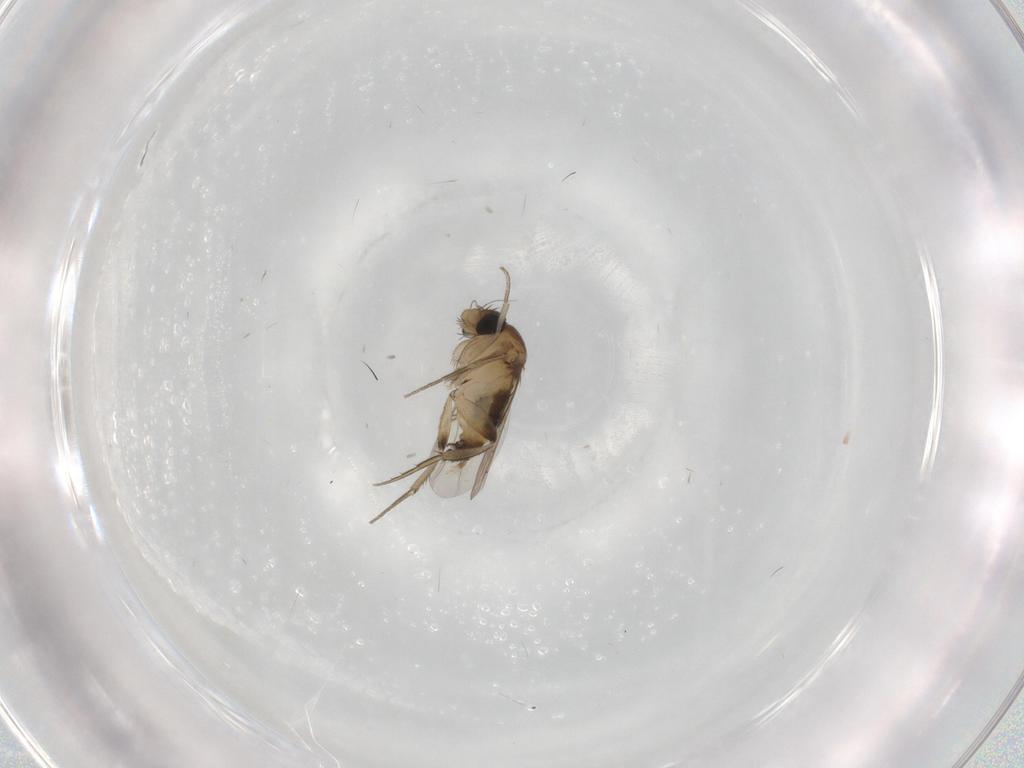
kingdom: Animalia
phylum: Arthropoda
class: Insecta
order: Diptera
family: Phoridae
